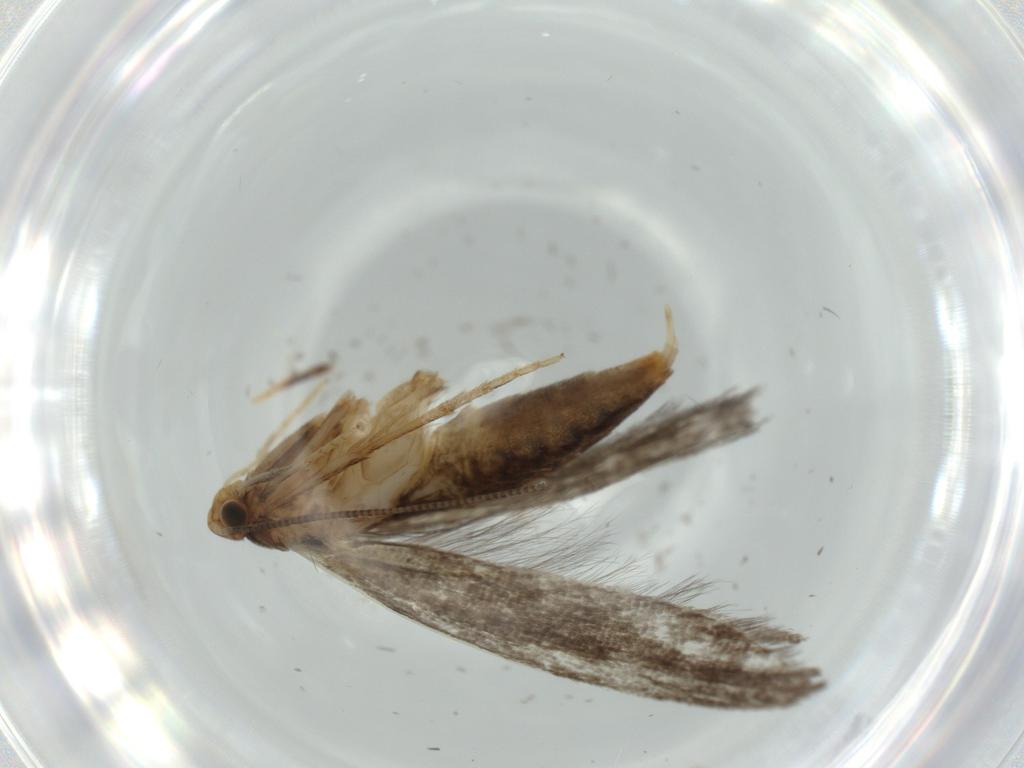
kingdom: Animalia
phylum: Arthropoda
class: Insecta
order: Lepidoptera
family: Tineidae
